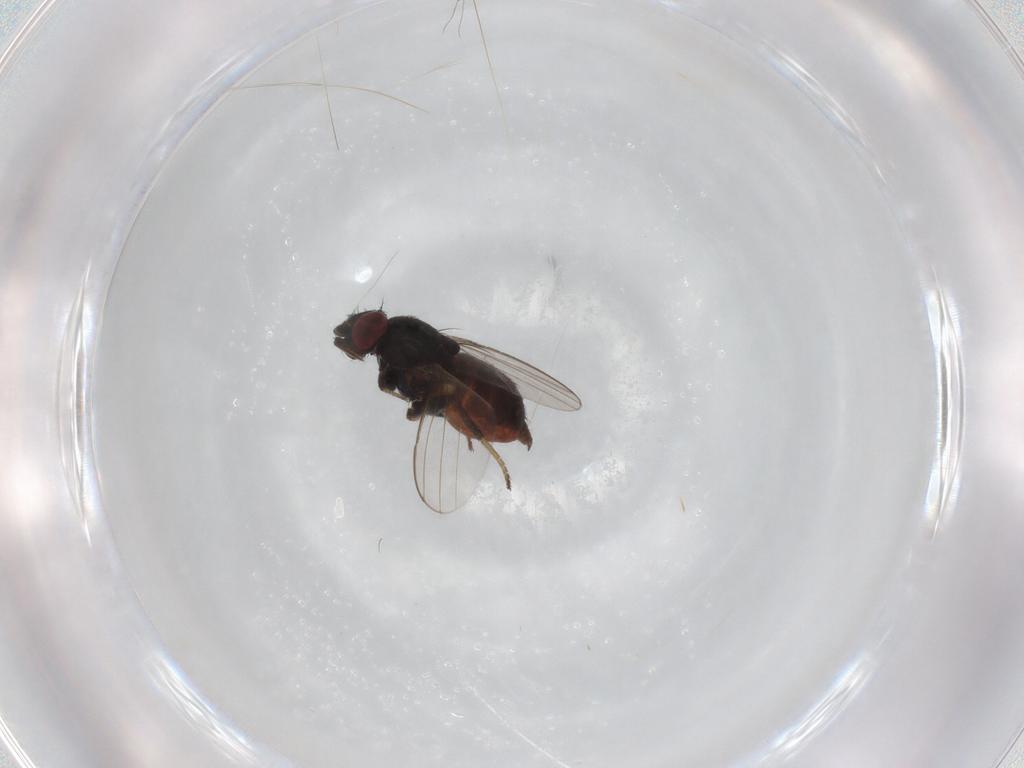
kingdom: Animalia
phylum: Arthropoda
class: Insecta
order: Diptera
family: Milichiidae
